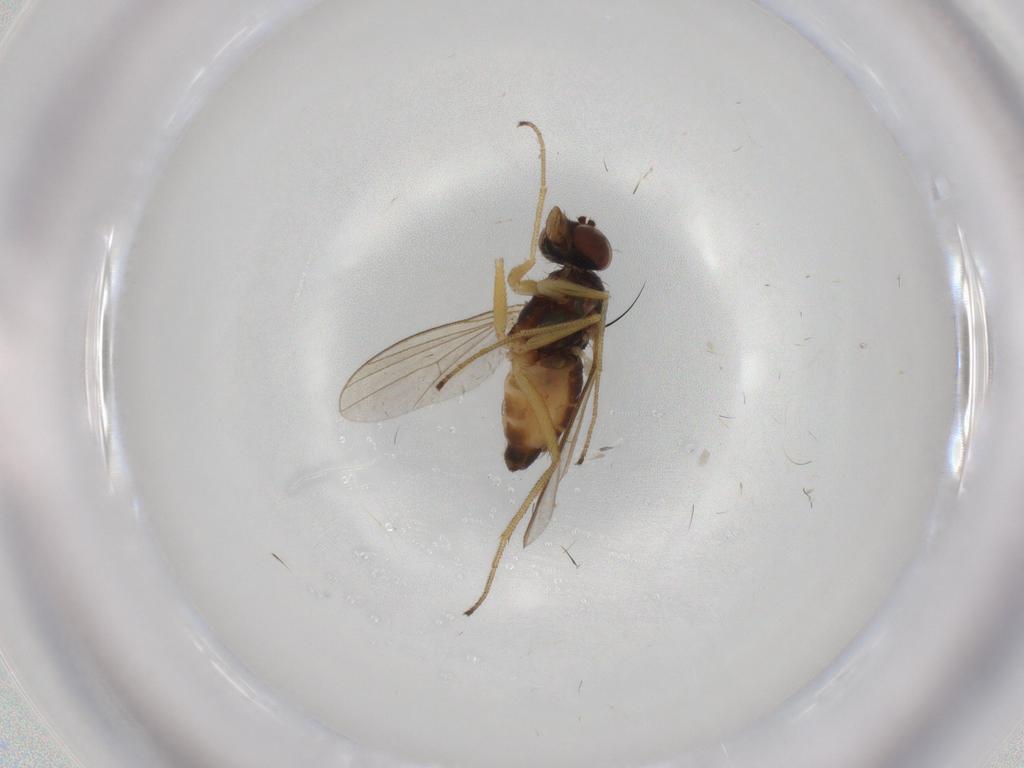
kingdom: Animalia
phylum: Arthropoda
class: Insecta
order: Diptera
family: Dolichopodidae
